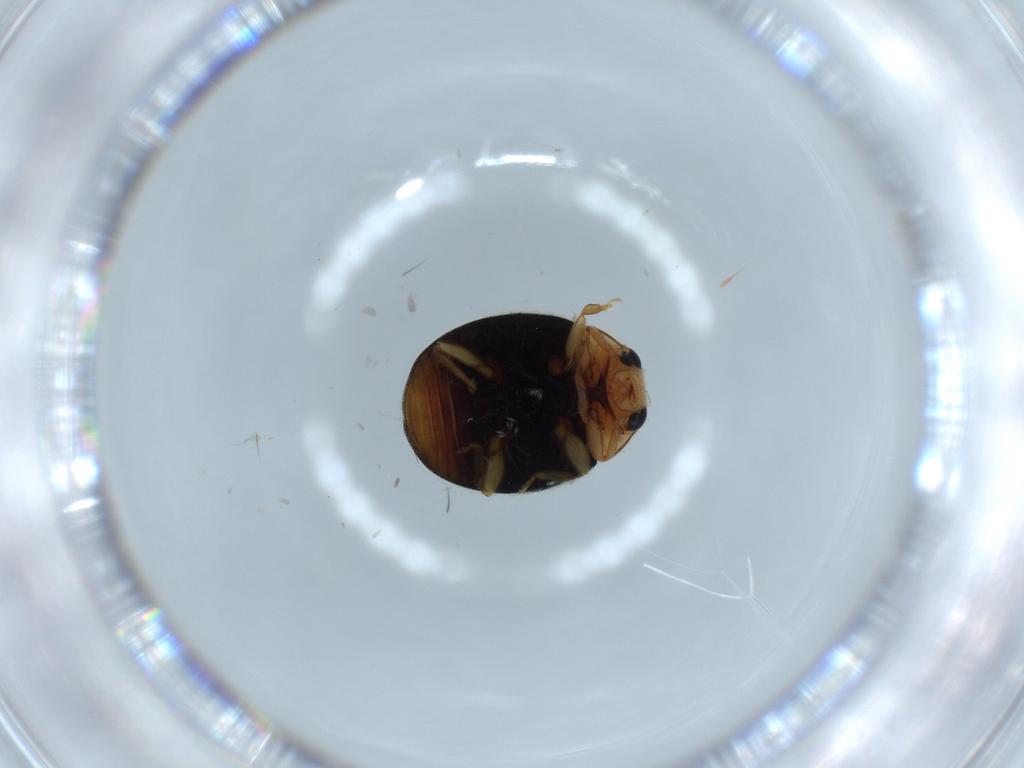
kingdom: Animalia
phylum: Arthropoda
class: Insecta
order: Coleoptera
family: Coccinellidae
